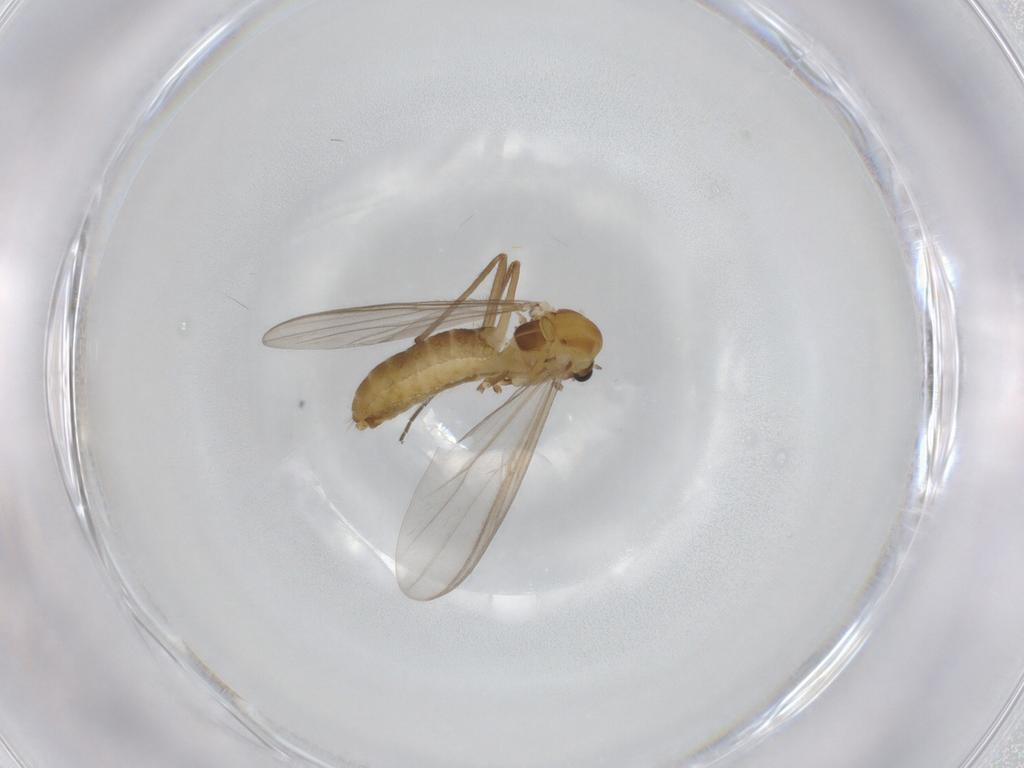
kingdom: Animalia
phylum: Arthropoda
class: Insecta
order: Diptera
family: Chironomidae
